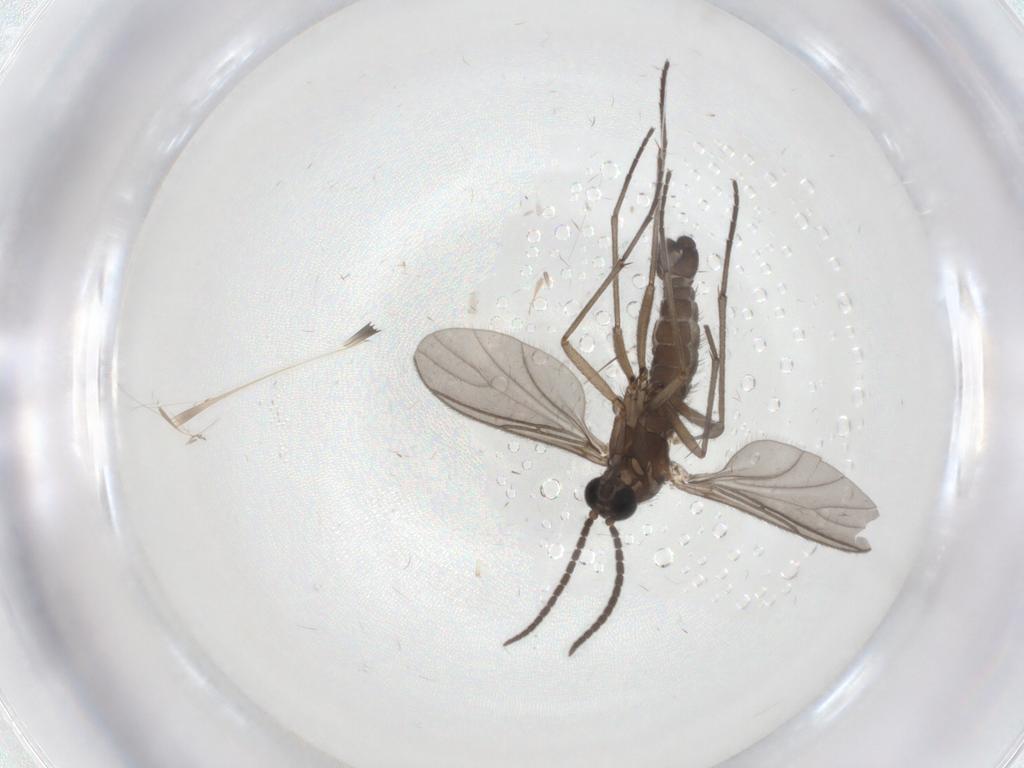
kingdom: Animalia
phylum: Arthropoda
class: Insecta
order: Diptera
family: Sciaridae
